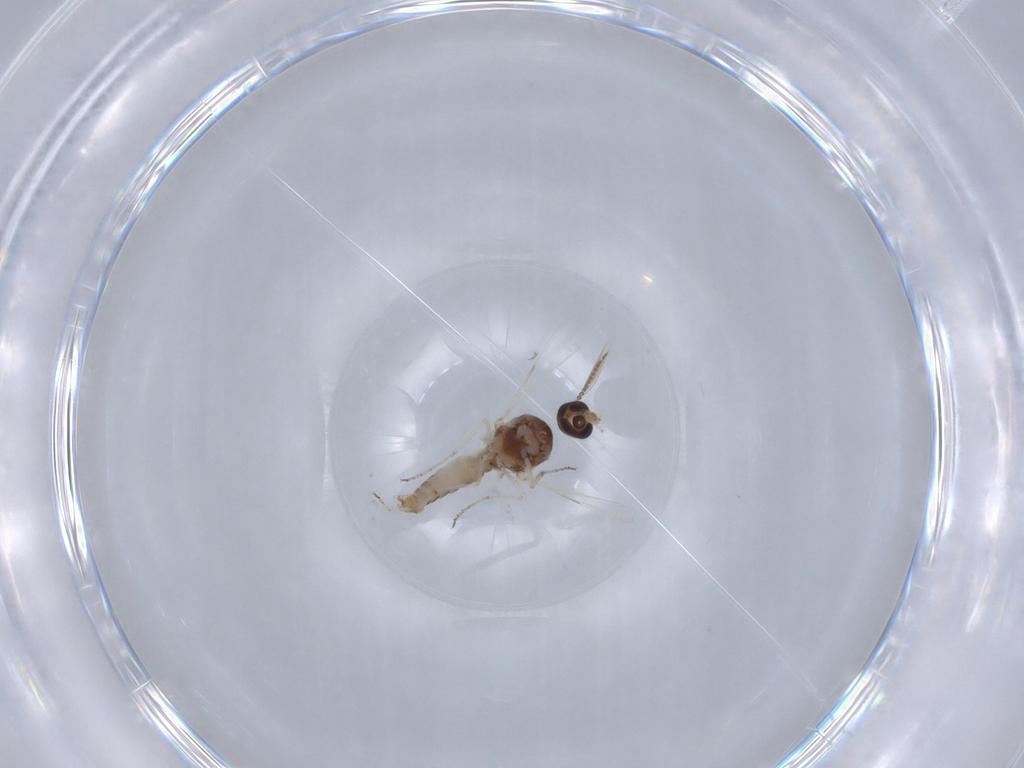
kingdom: Animalia
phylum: Arthropoda
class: Insecta
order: Diptera
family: Ceratopogonidae
